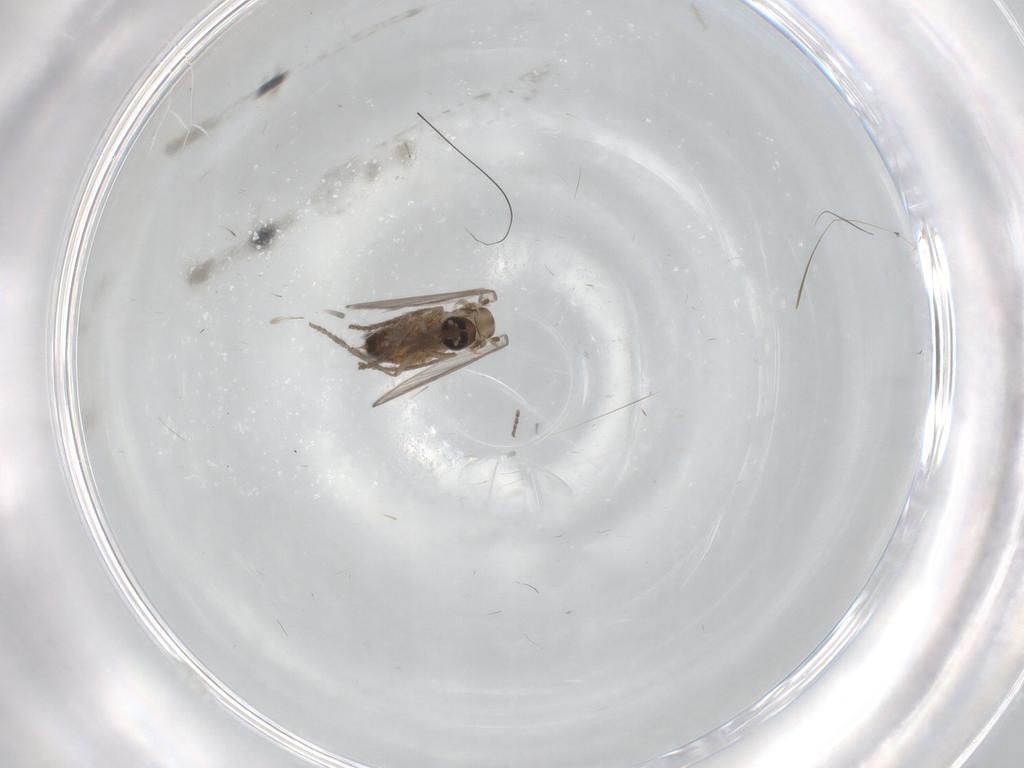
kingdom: Animalia
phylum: Arthropoda
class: Insecta
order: Diptera
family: Psychodidae
